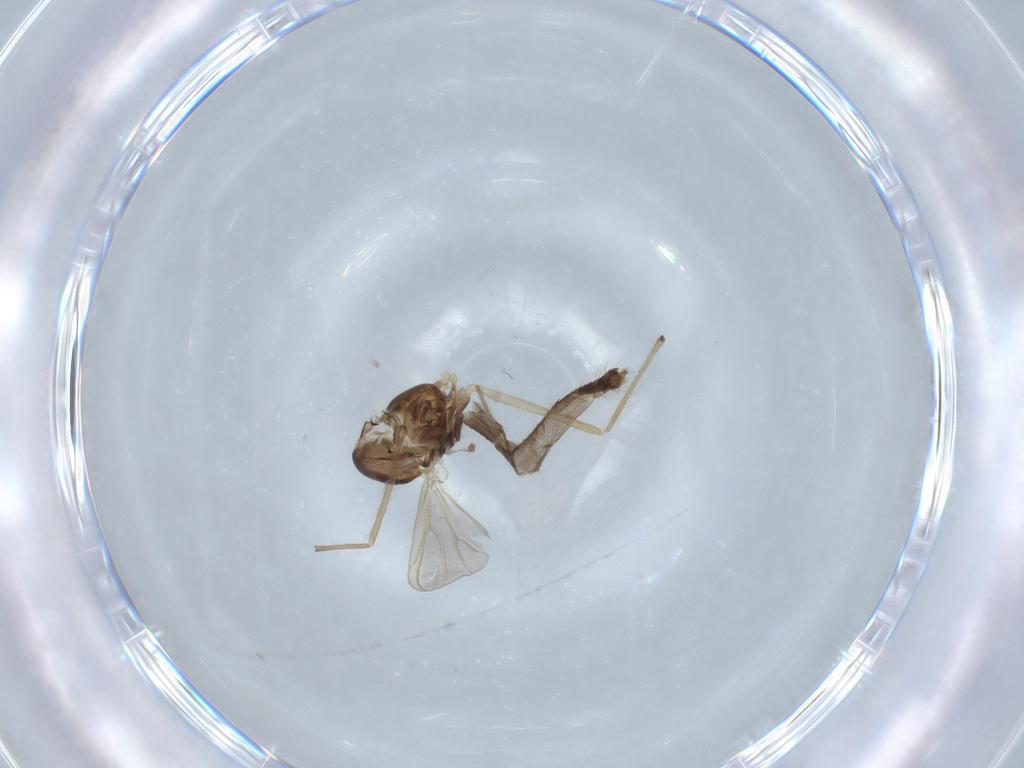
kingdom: Animalia
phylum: Arthropoda
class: Insecta
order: Diptera
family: Chironomidae
